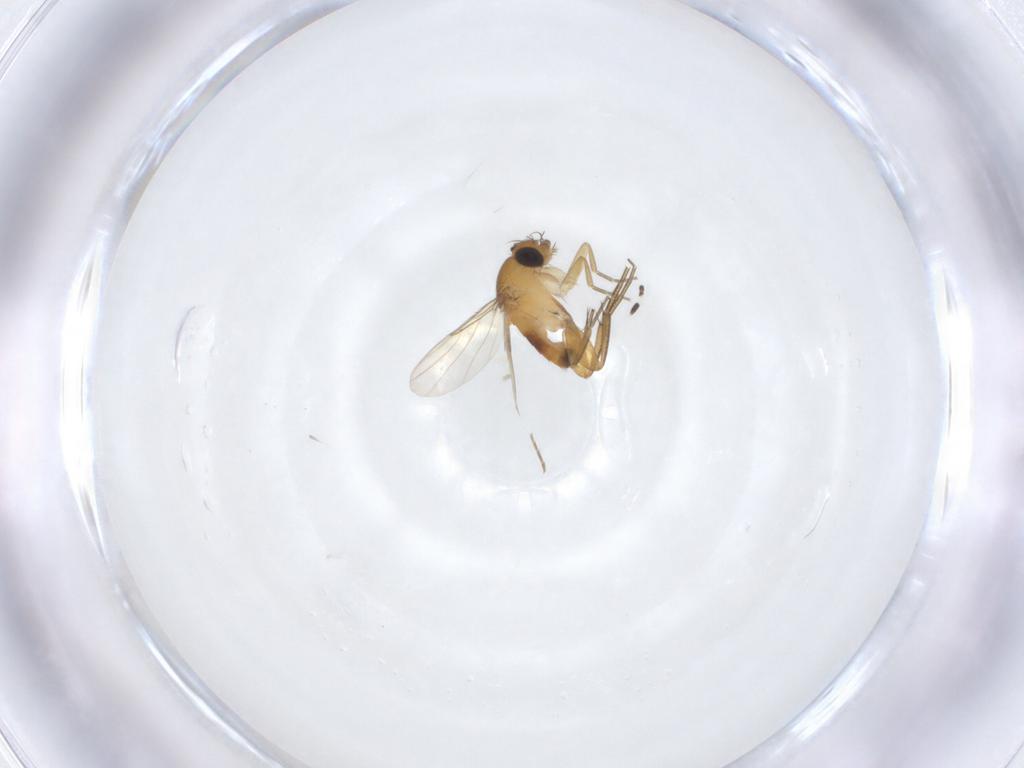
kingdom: Animalia
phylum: Arthropoda
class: Insecta
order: Diptera
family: Phoridae
